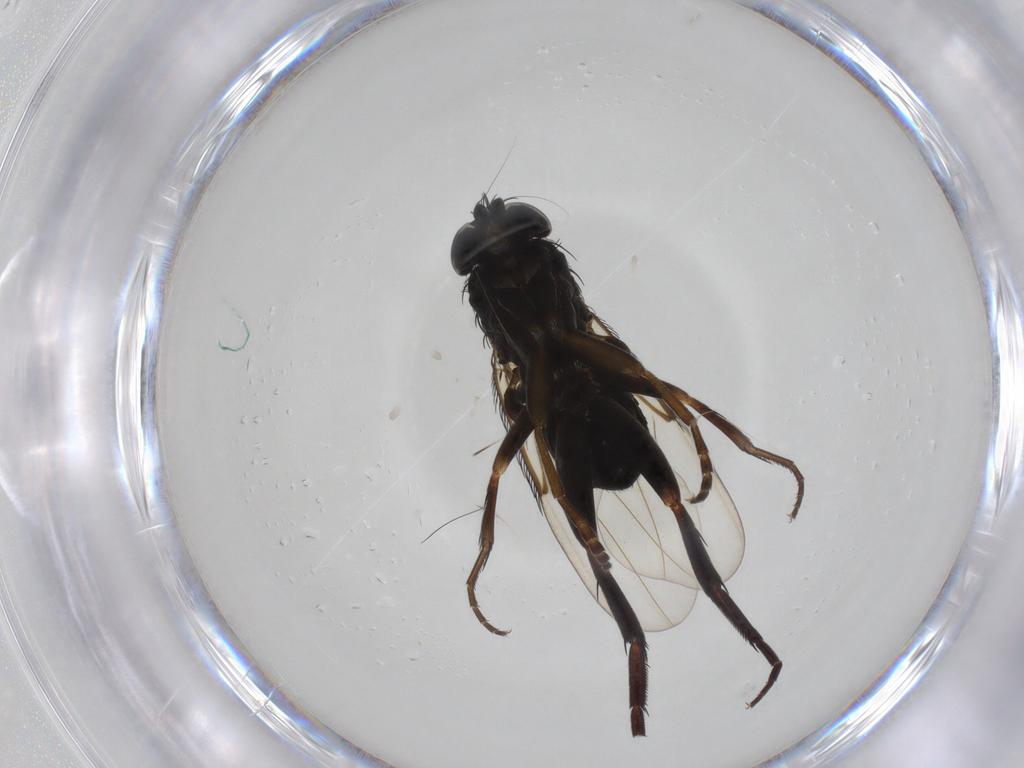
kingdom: Animalia
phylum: Arthropoda
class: Insecta
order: Diptera
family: Phoridae
